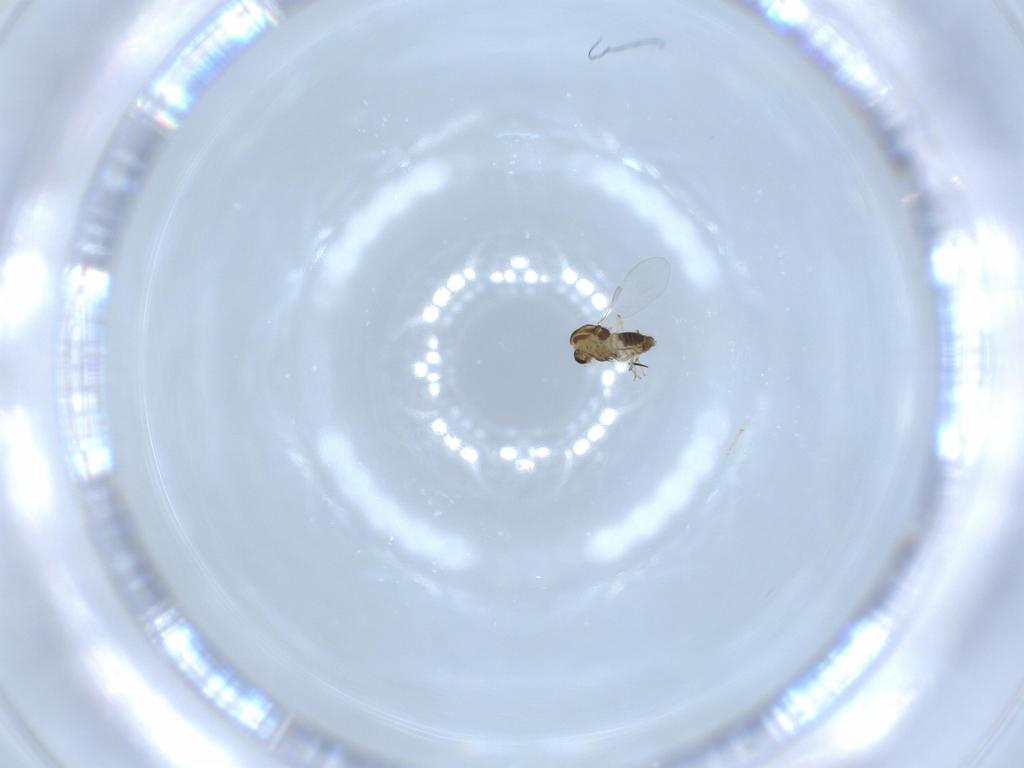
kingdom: Animalia
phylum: Arthropoda
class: Insecta
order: Diptera
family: Chironomidae
